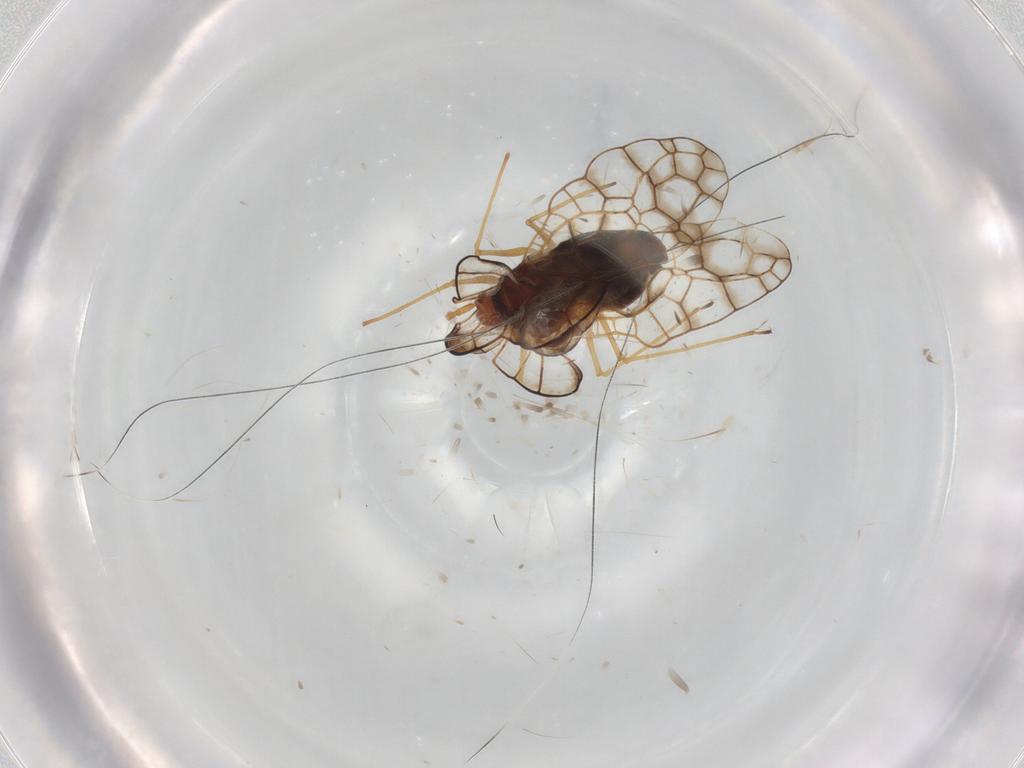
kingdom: Animalia
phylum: Arthropoda
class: Insecta
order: Hemiptera
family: Tingidae
